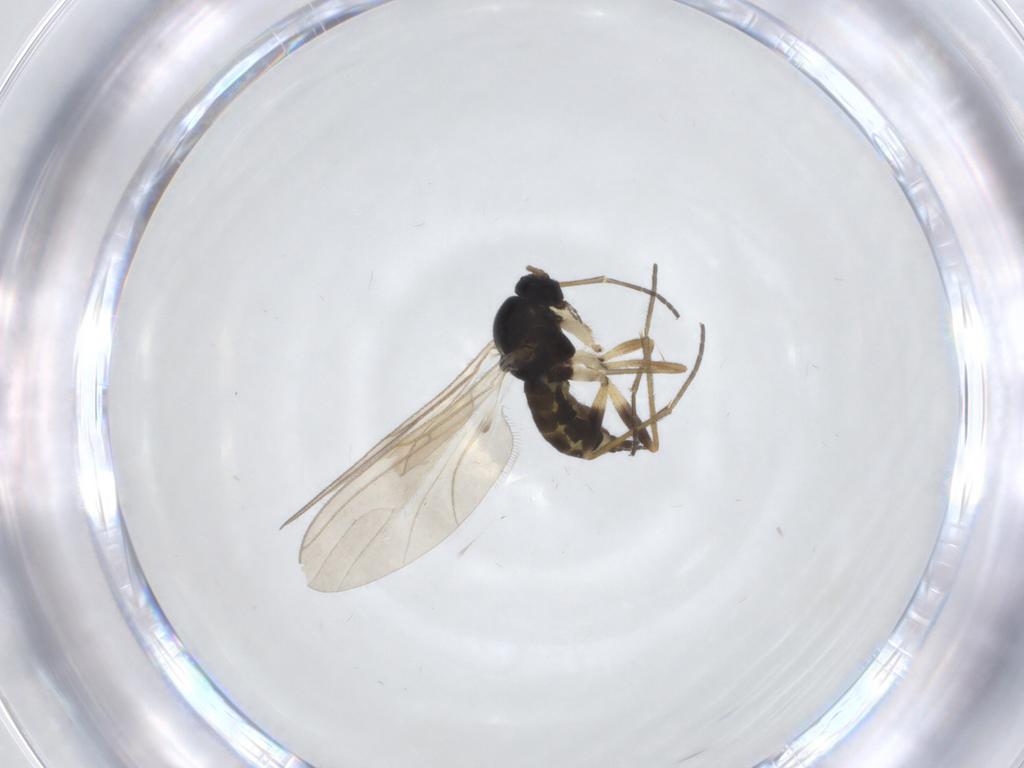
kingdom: Animalia
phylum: Arthropoda
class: Insecta
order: Diptera
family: Sciaridae
